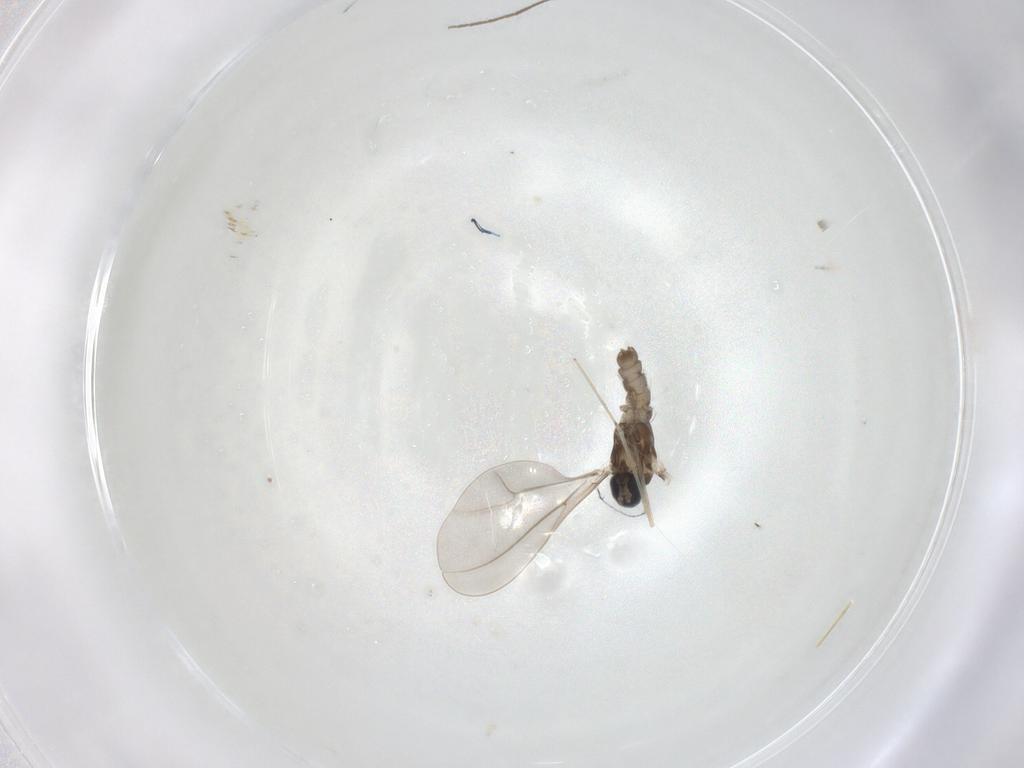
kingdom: Animalia
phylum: Arthropoda
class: Insecta
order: Diptera
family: Cecidomyiidae
